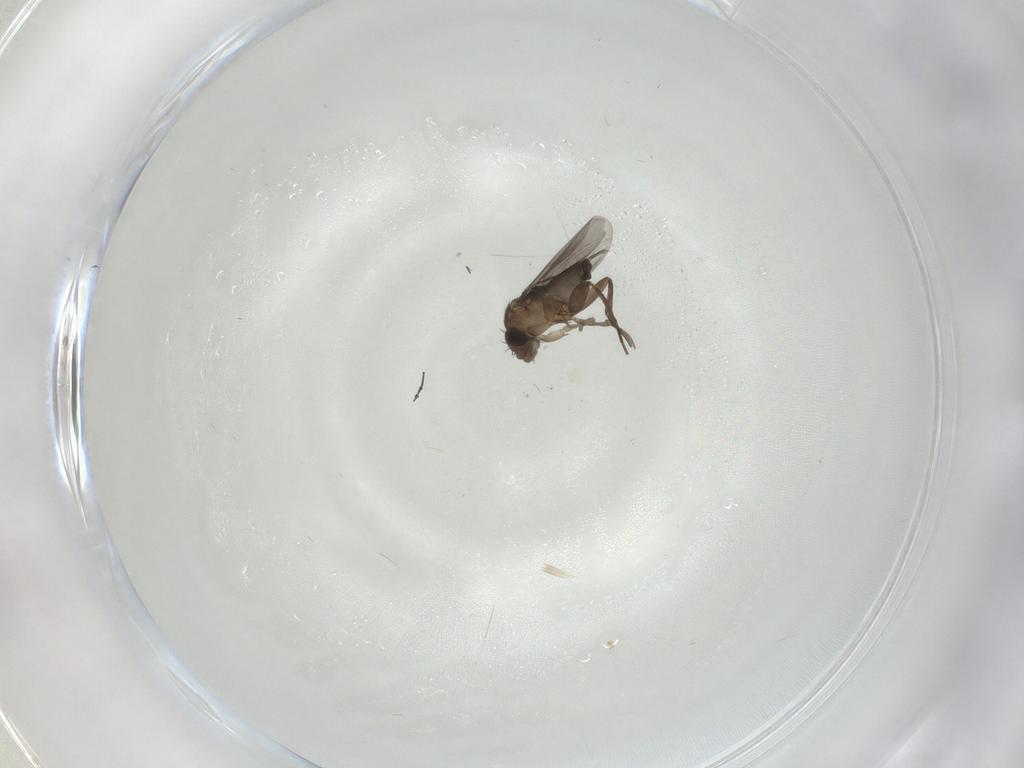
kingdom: Animalia
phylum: Arthropoda
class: Insecta
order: Diptera
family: Phoridae
